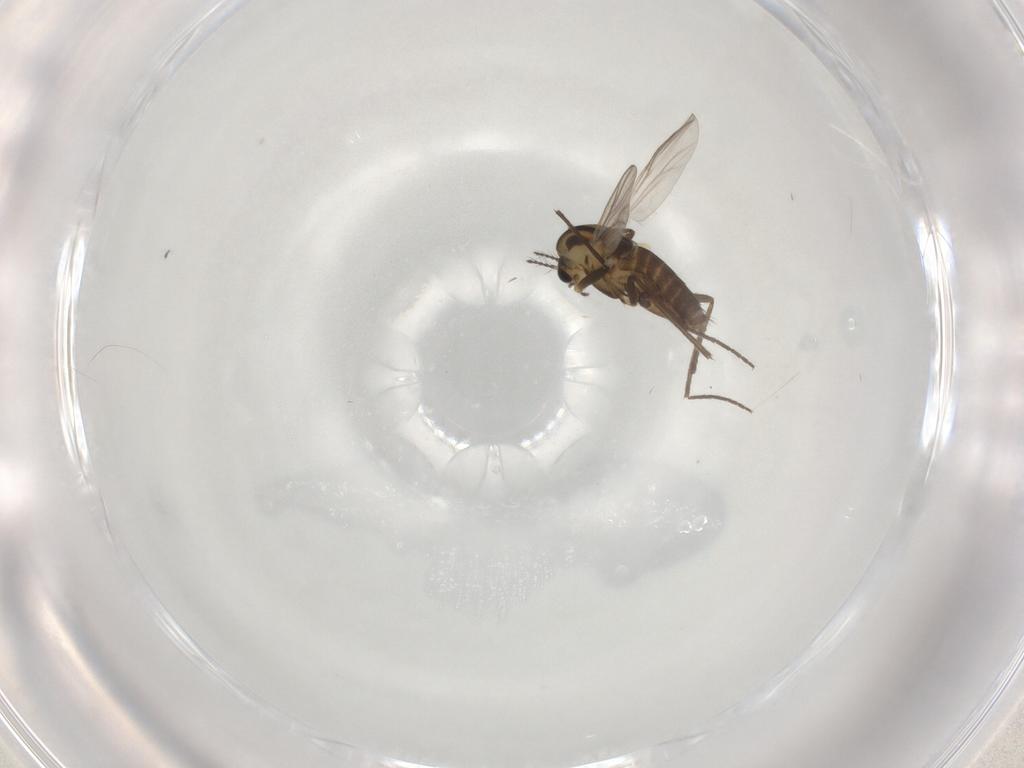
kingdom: Animalia
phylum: Arthropoda
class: Insecta
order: Diptera
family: Chironomidae
